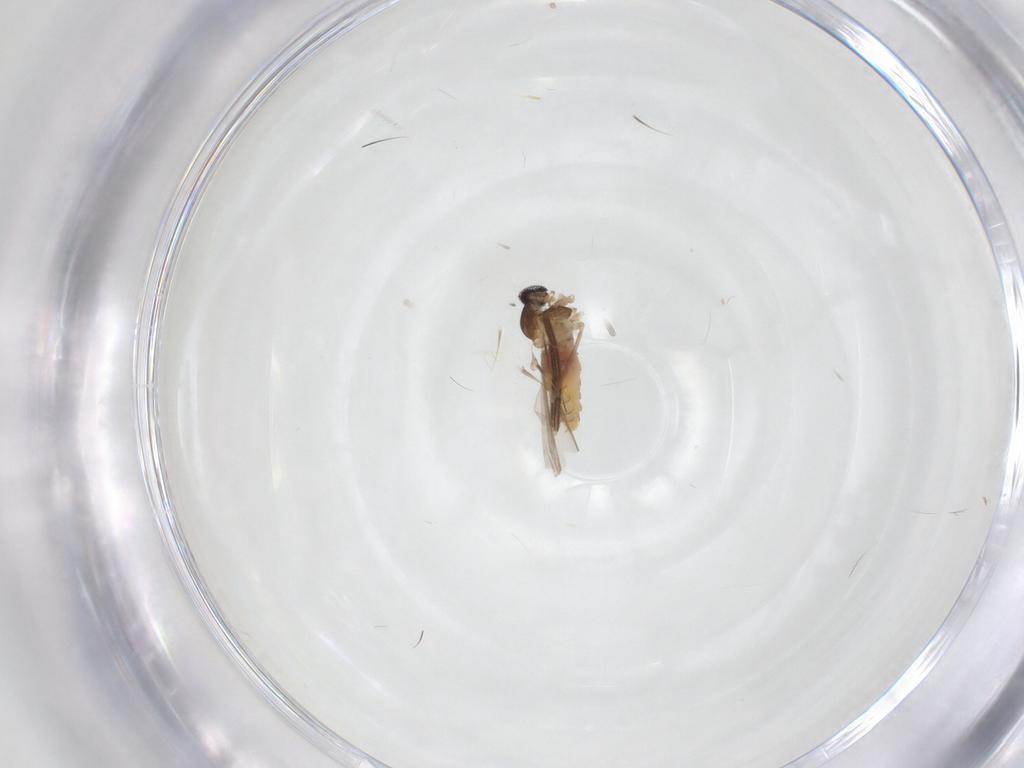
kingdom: Animalia
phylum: Arthropoda
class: Insecta
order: Diptera
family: Cecidomyiidae
